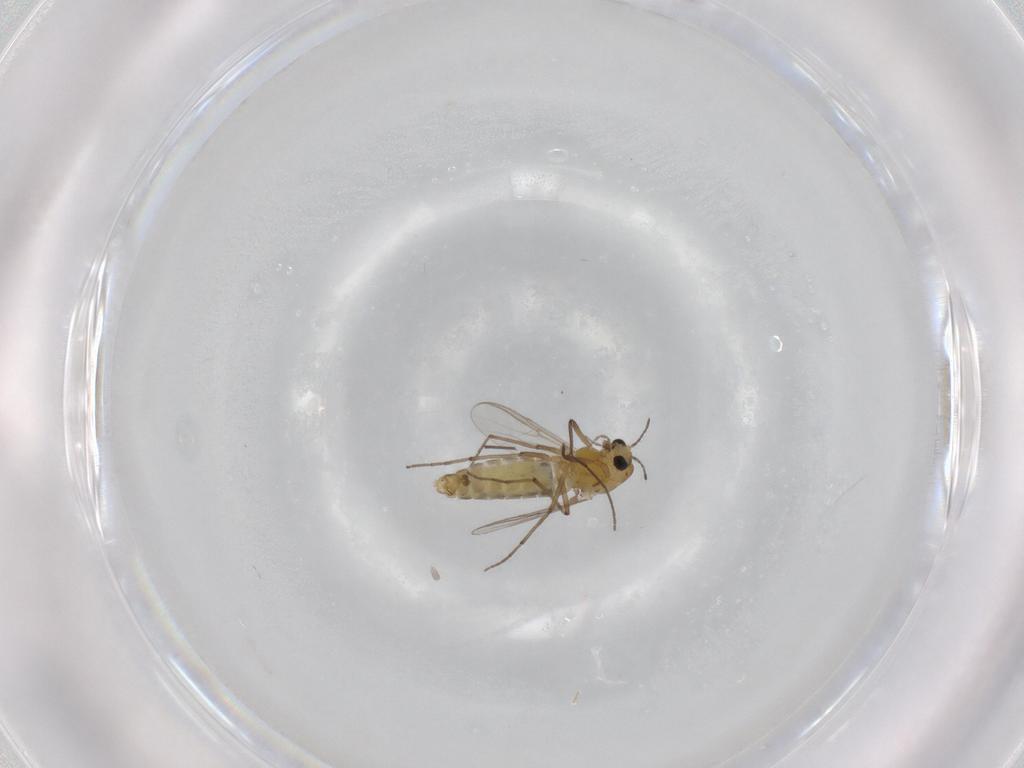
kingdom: Animalia
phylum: Arthropoda
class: Insecta
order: Diptera
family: Chironomidae
